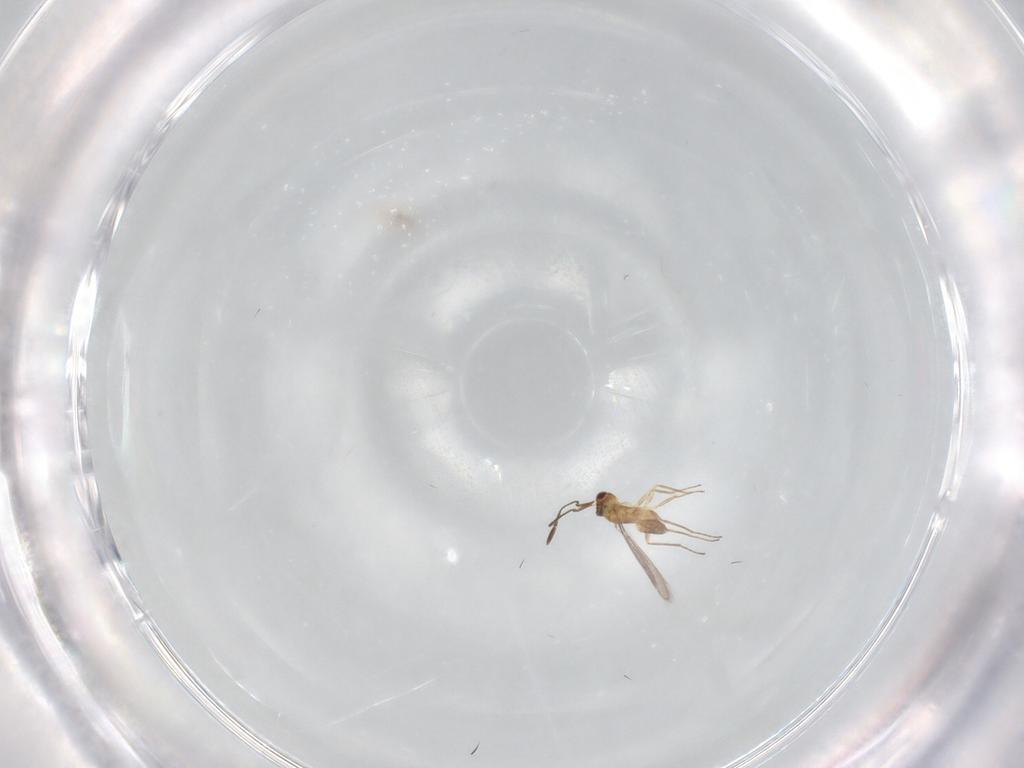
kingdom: Animalia
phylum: Arthropoda
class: Insecta
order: Hymenoptera
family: Mymaridae
